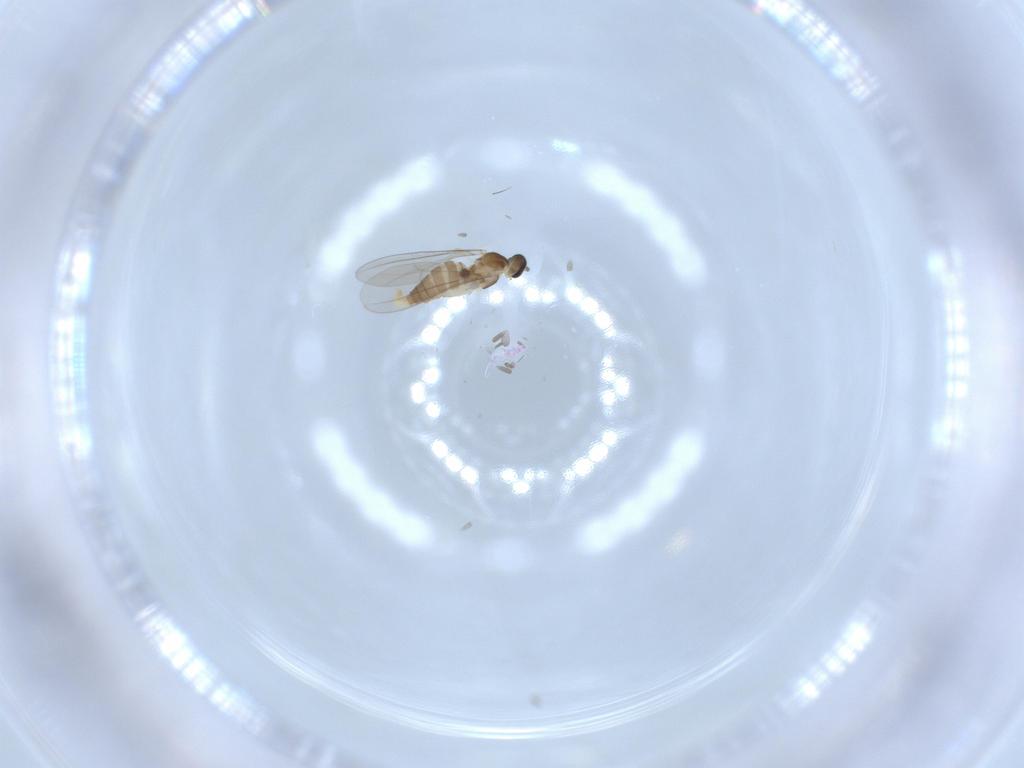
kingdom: Animalia
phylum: Arthropoda
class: Insecta
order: Diptera
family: Cecidomyiidae
